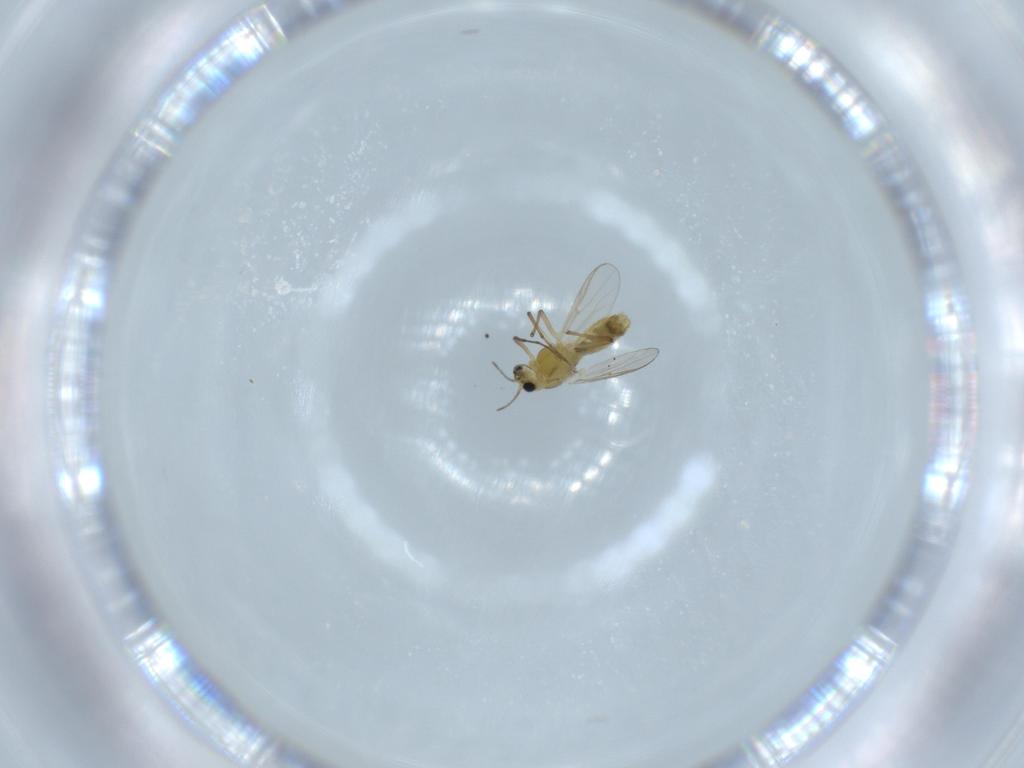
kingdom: Animalia
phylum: Arthropoda
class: Insecta
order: Diptera
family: Chironomidae
